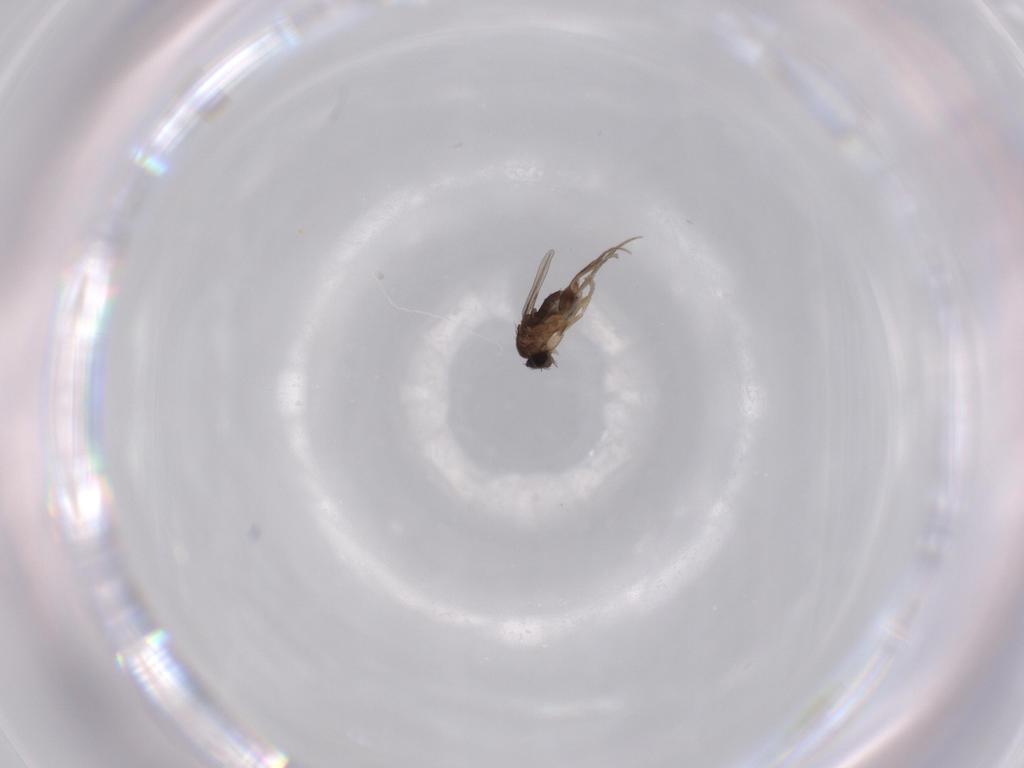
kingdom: Animalia
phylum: Arthropoda
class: Insecta
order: Diptera
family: Phoridae
